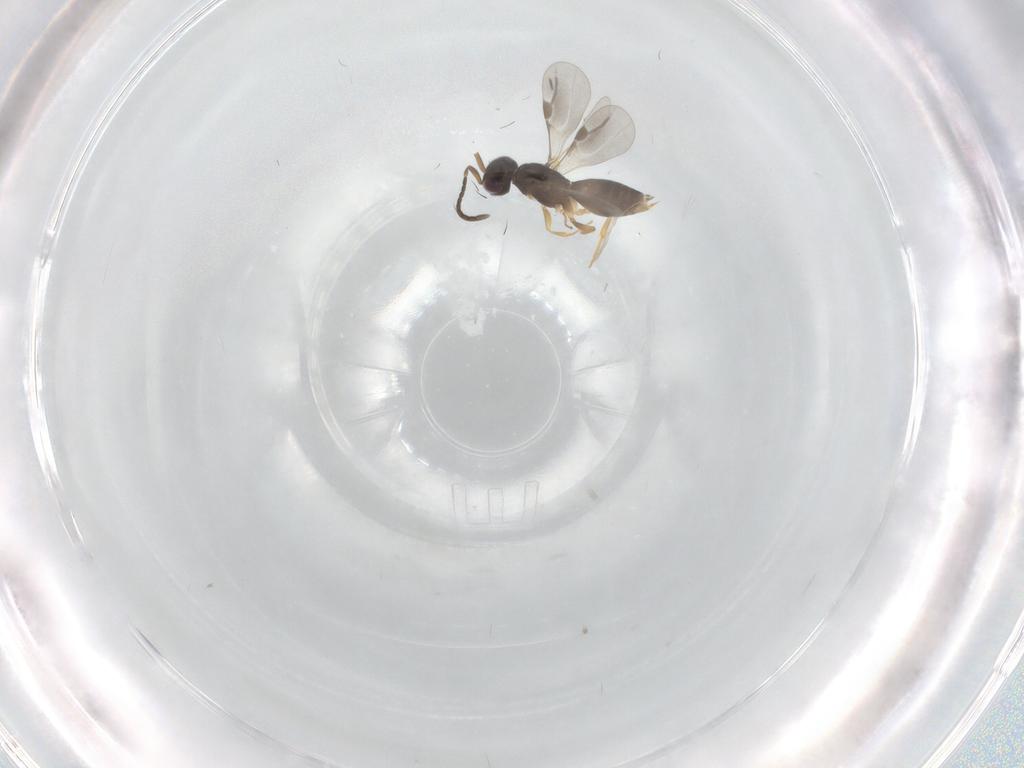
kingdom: Animalia
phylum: Arthropoda
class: Insecta
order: Hymenoptera
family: Megaspilidae
